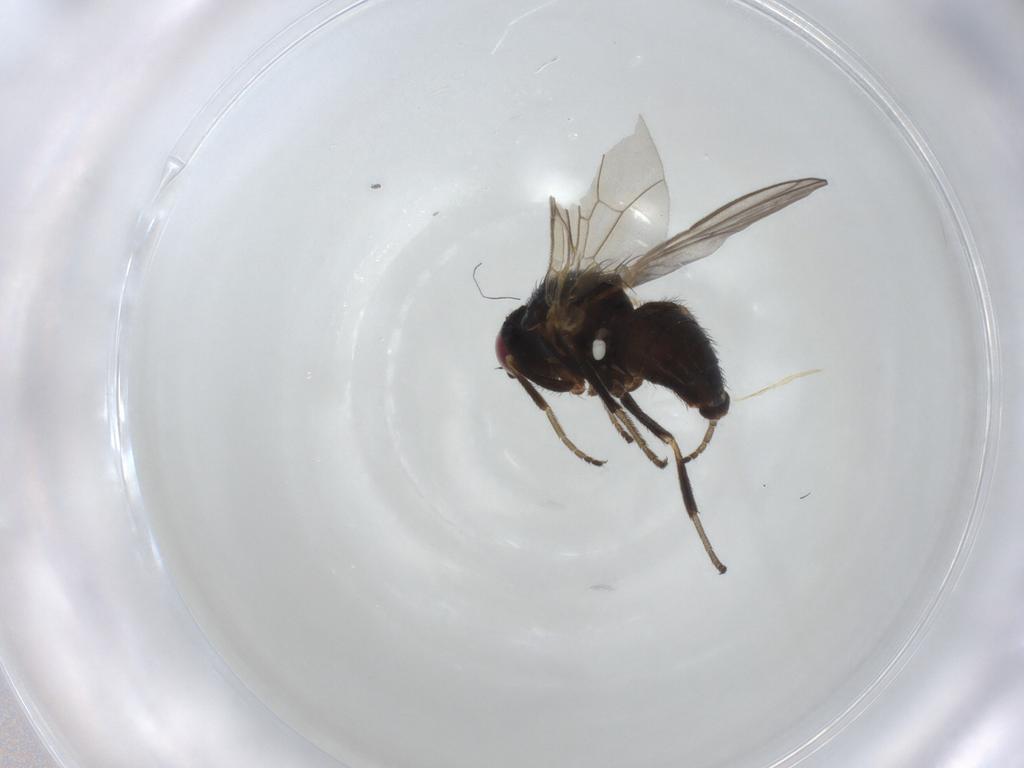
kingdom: Animalia
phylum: Arthropoda
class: Insecta
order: Diptera
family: Agromyzidae
